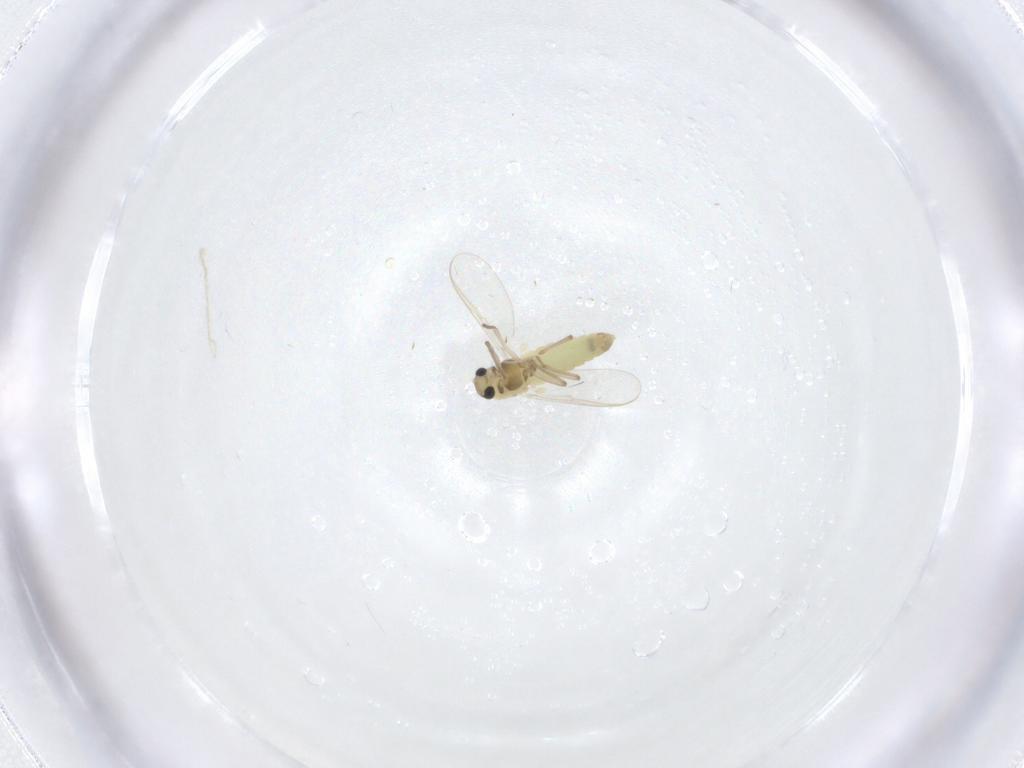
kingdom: Animalia
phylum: Arthropoda
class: Insecta
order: Diptera
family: Chironomidae
